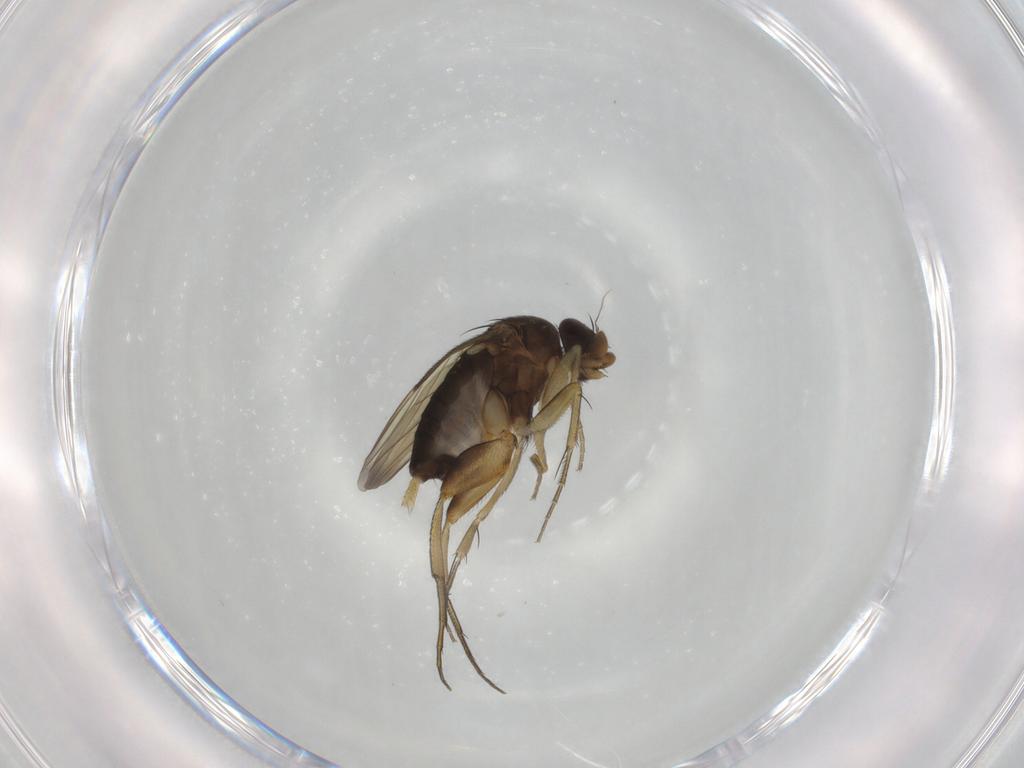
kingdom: Animalia
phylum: Arthropoda
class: Insecta
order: Diptera
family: Phoridae
